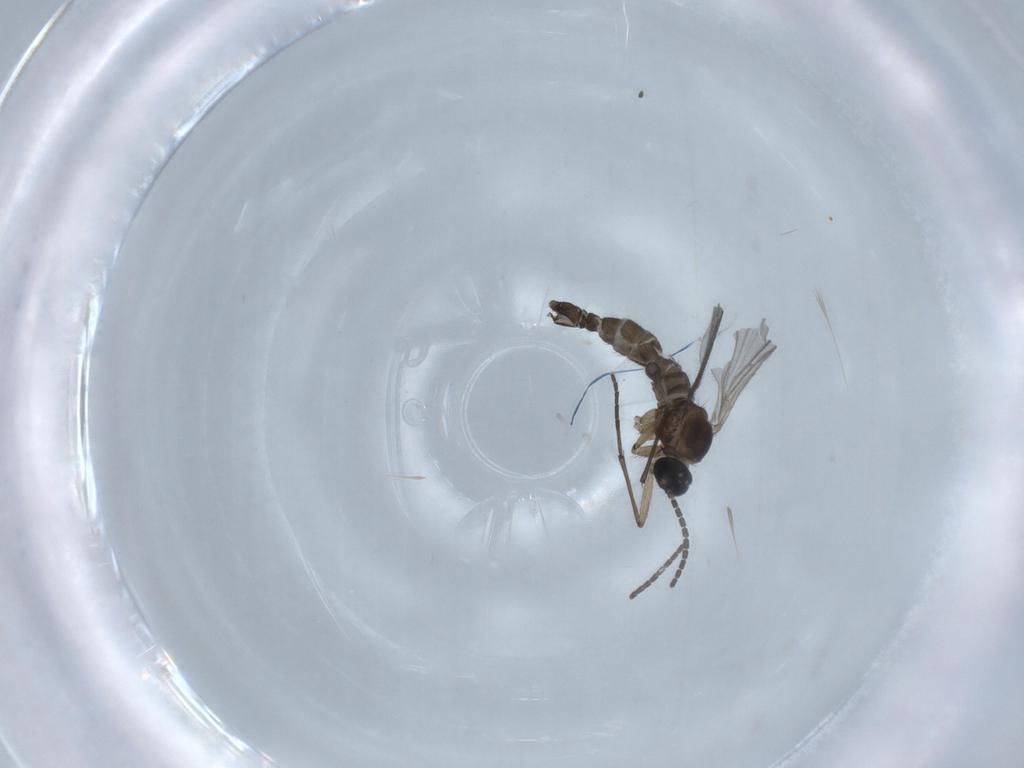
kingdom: Animalia
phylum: Arthropoda
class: Insecta
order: Diptera
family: Sciaridae
